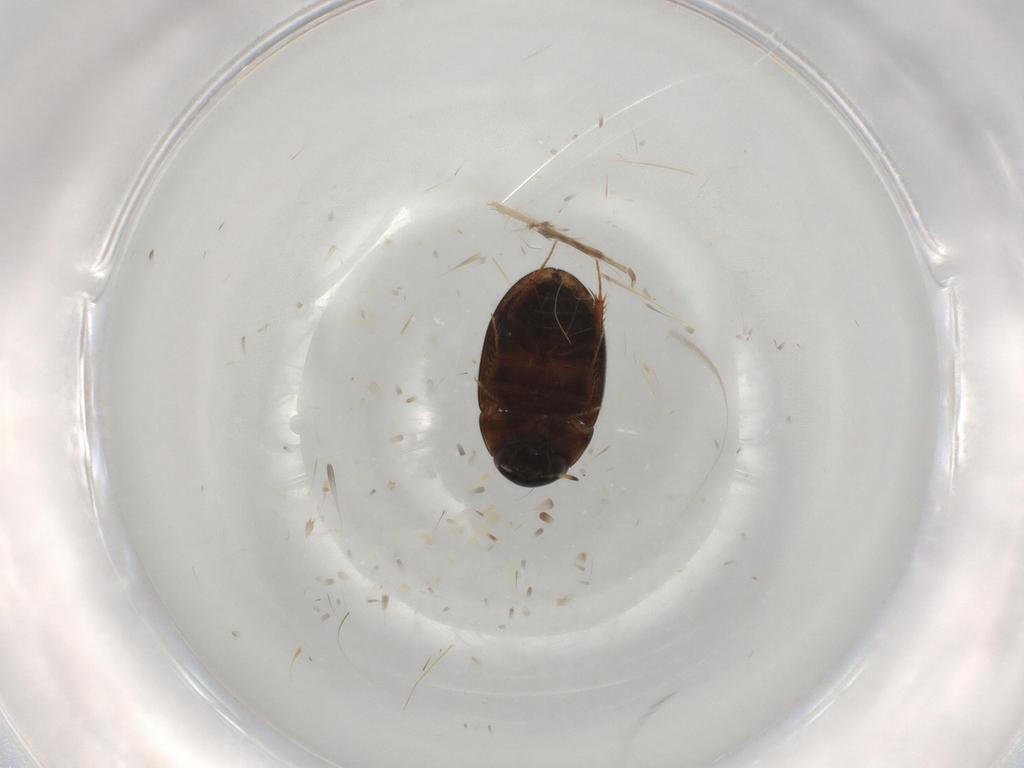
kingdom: Animalia
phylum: Arthropoda
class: Insecta
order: Coleoptera
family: Hydrophilidae
